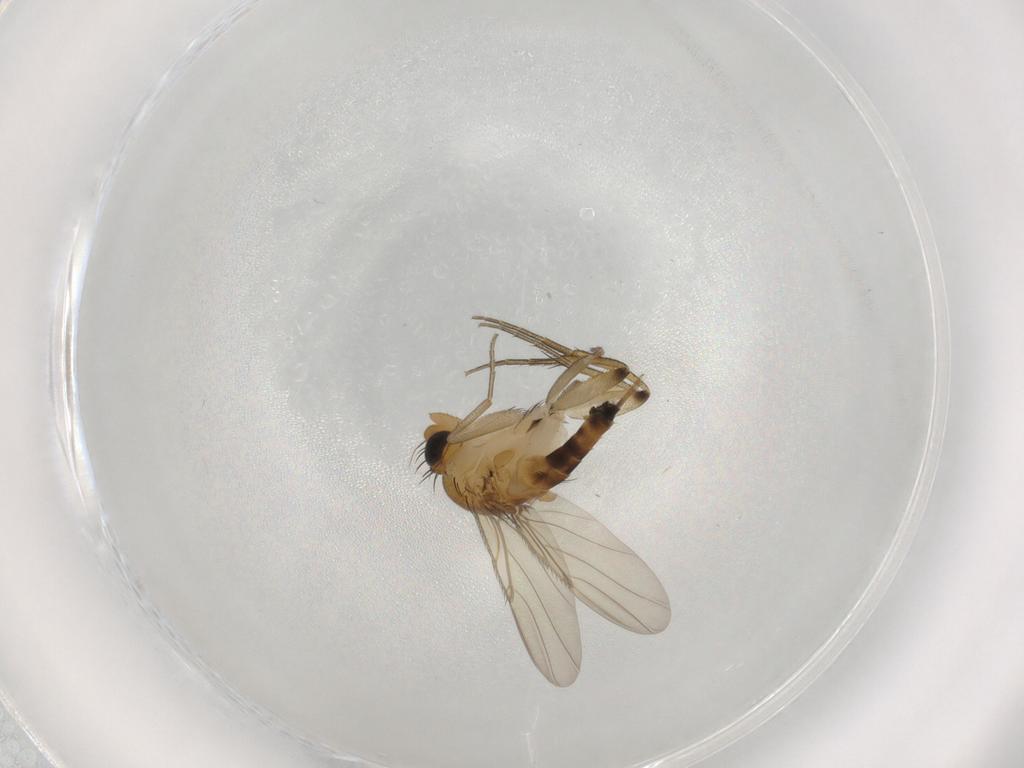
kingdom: Animalia
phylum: Arthropoda
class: Insecta
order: Diptera
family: Phoridae
